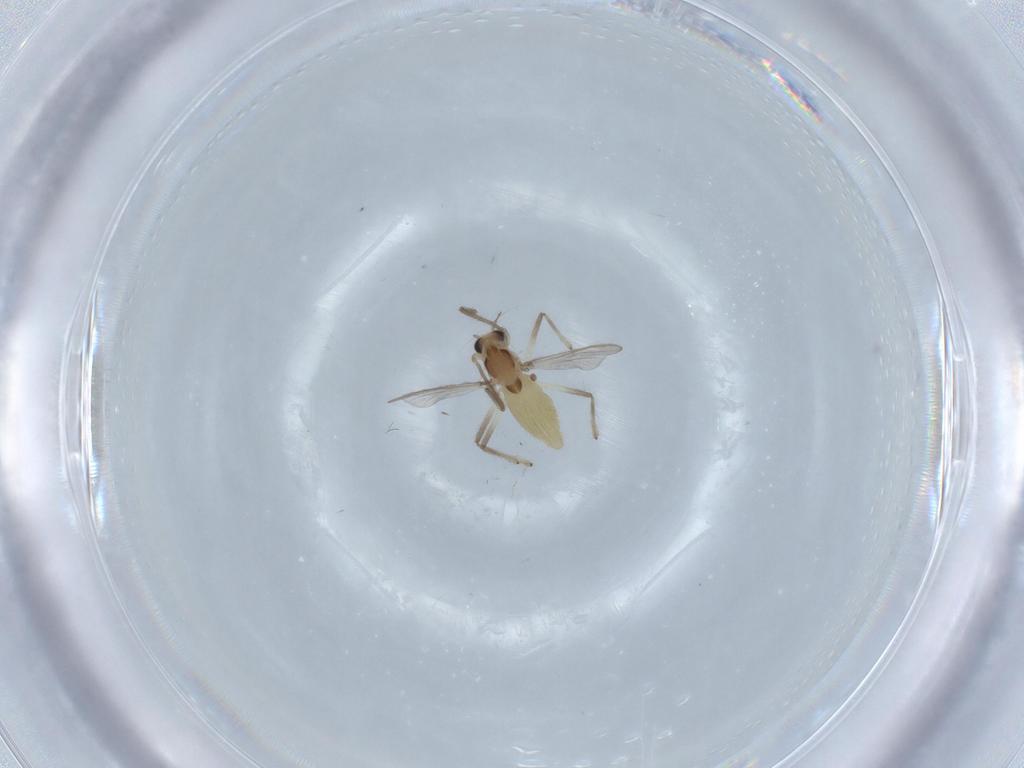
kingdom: Animalia
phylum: Arthropoda
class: Insecta
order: Diptera
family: Chironomidae
